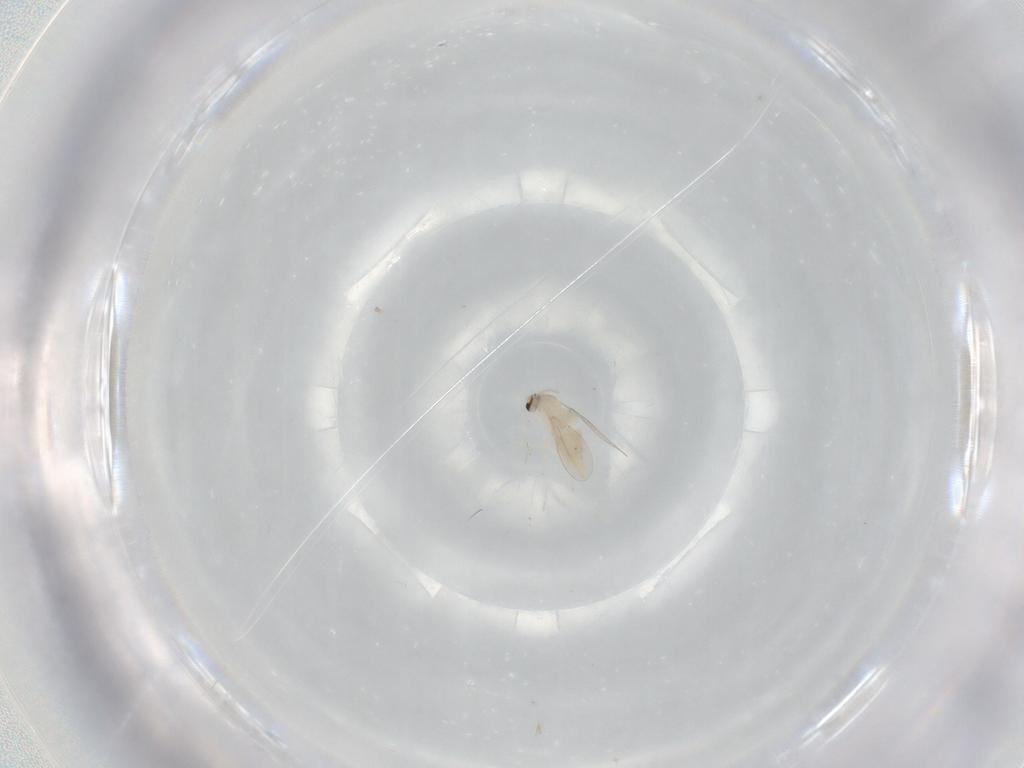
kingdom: Animalia
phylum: Arthropoda
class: Insecta
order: Diptera
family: Cecidomyiidae
